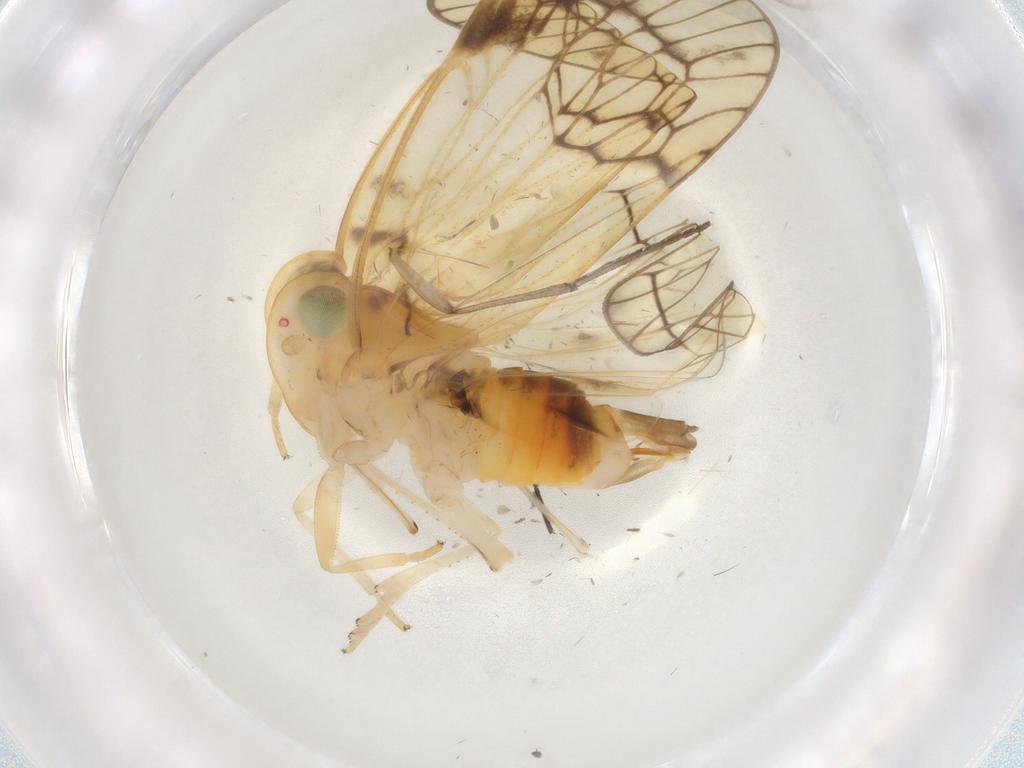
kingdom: Animalia
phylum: Arthropoda
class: Insecta
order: Hemiptera
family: Cixiidae
